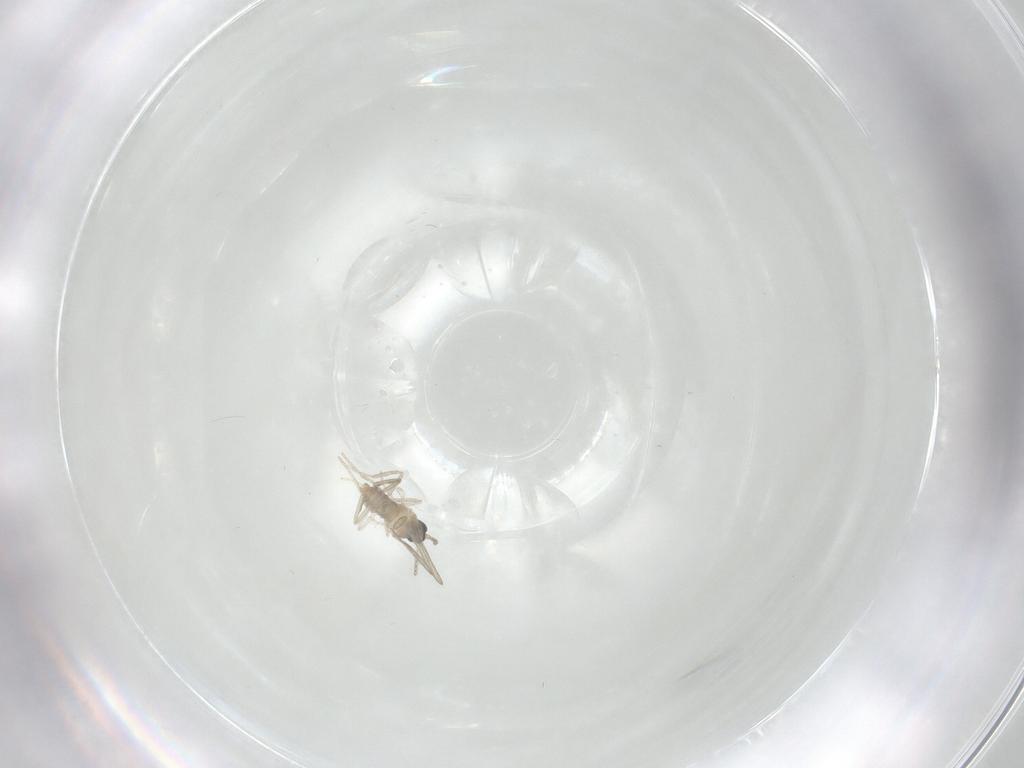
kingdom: Animalia
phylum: Arthropoda
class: Insecta
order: Diptera
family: Cecidomyiidae
